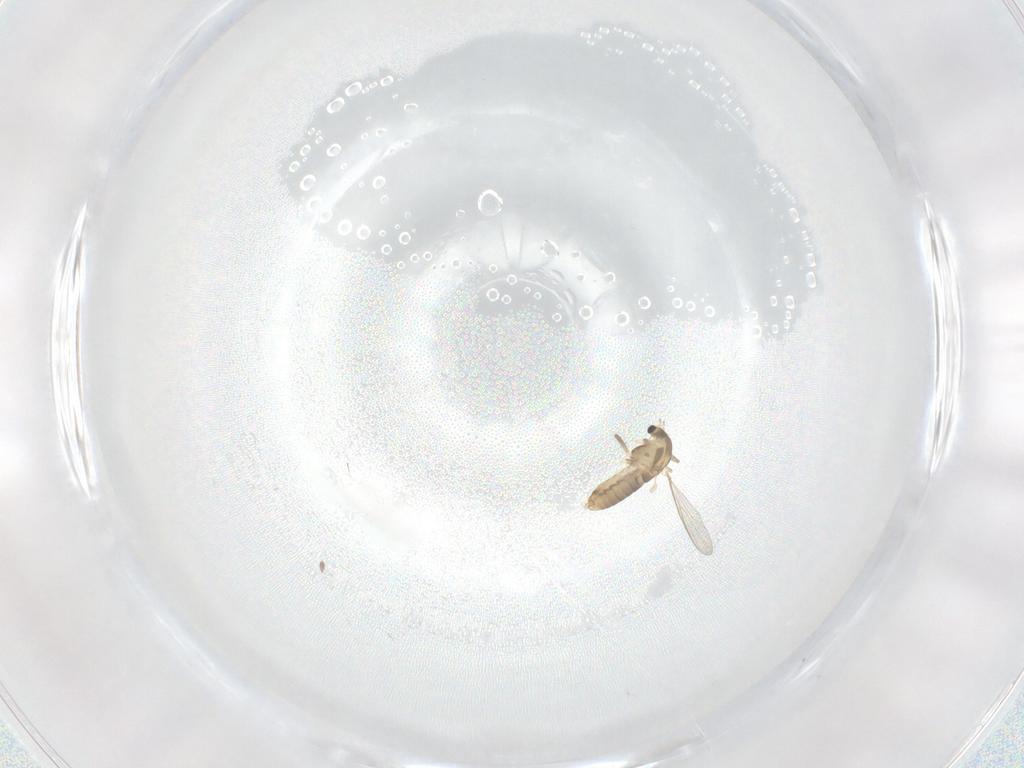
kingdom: Animalia
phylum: Arthropoda
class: Insecta
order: Diptera
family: Chironomidae
